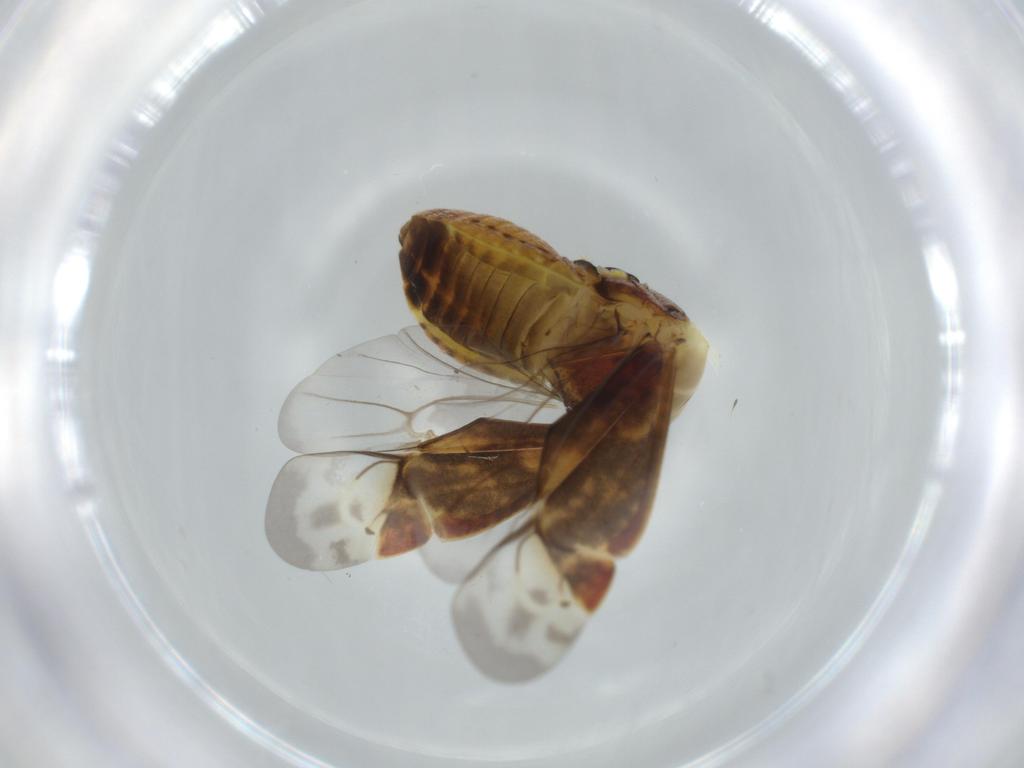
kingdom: Animalia
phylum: Arthropoda
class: Insecta
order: Hemiptera
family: Miridae
